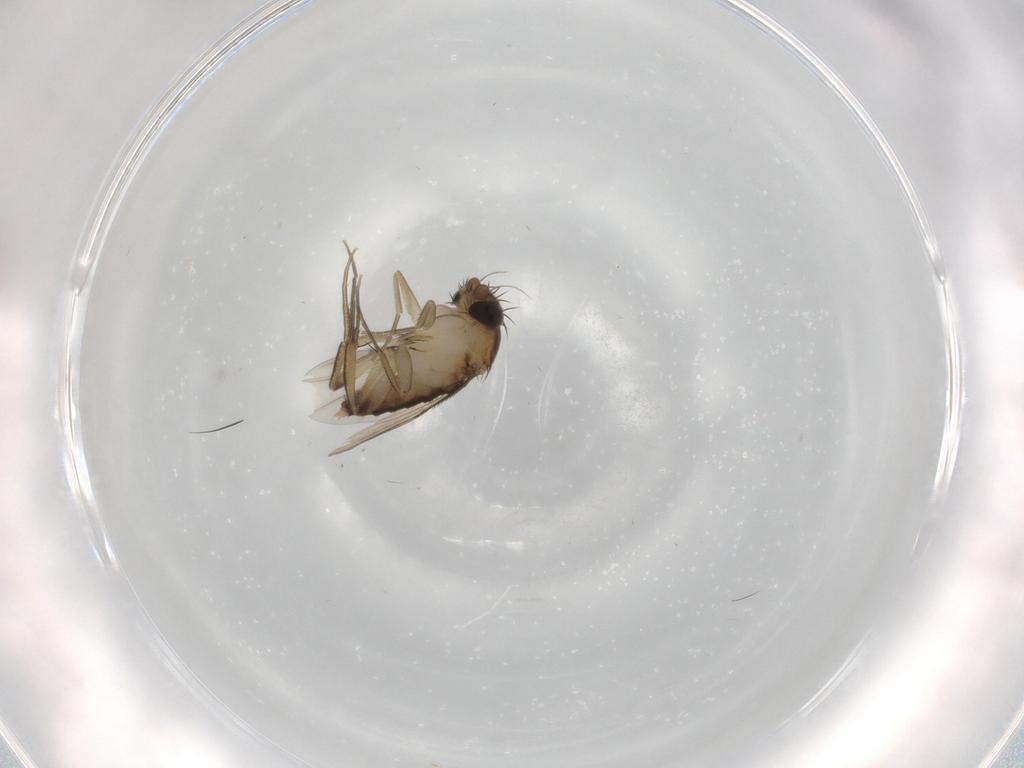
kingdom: Animalia
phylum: Arthropoda
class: Insecta
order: Diptera
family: Phoridae
